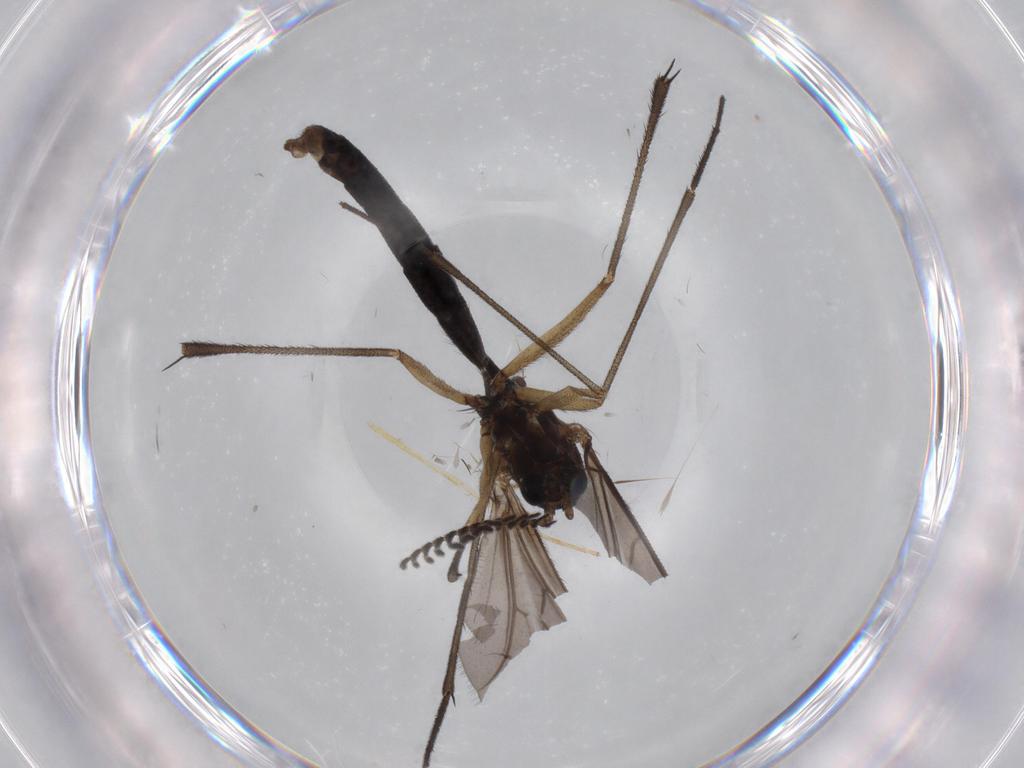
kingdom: Animalia
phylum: Arthropoda
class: Insecta
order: Diptera
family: Ditomyiidae
